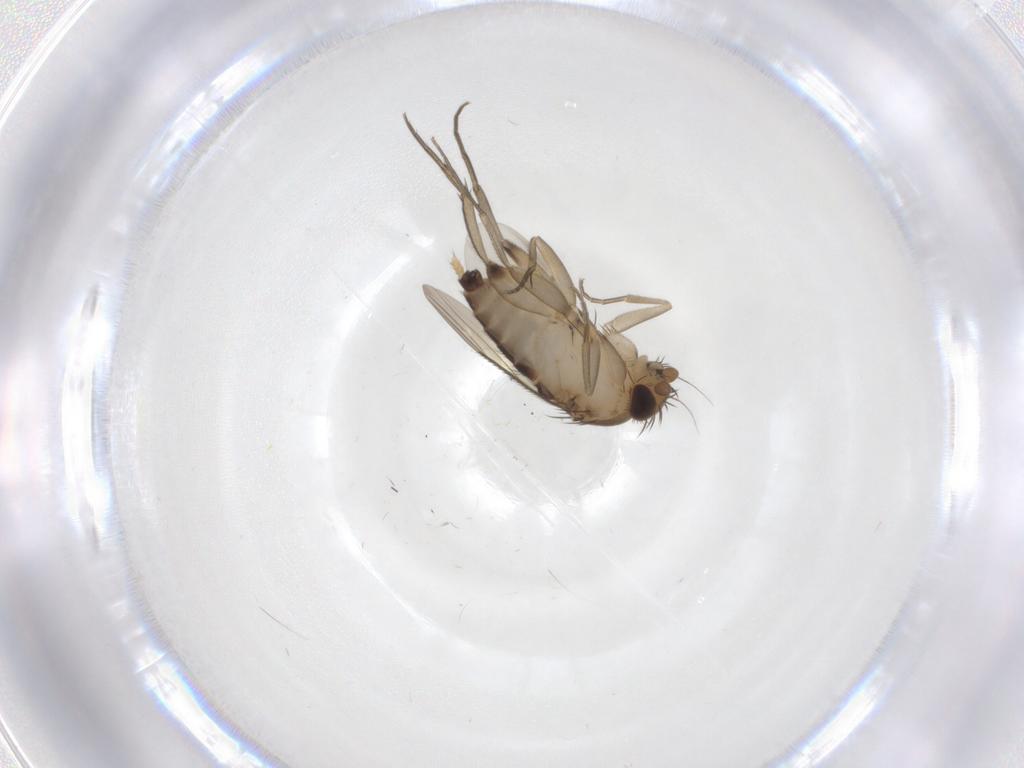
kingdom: Animalia
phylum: Arthropoda
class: Insecta
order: Diptera
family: Phoridae
